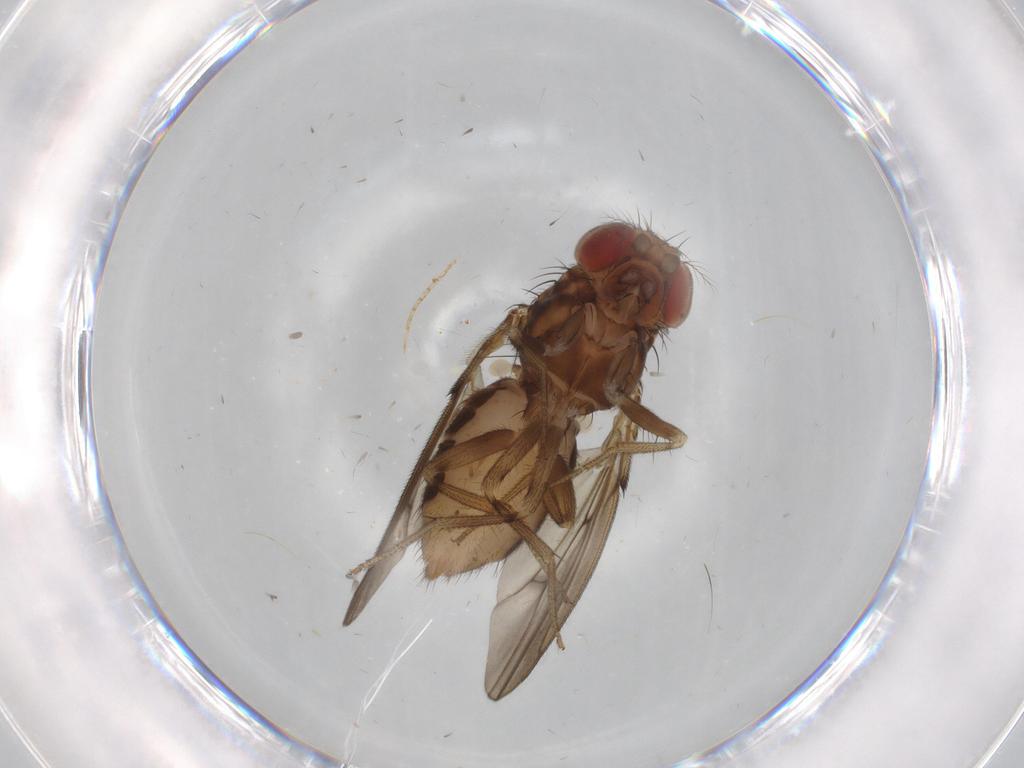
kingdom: Animalia
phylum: Arthropoda
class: Insecta
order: Diptera
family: Drosophilidae
